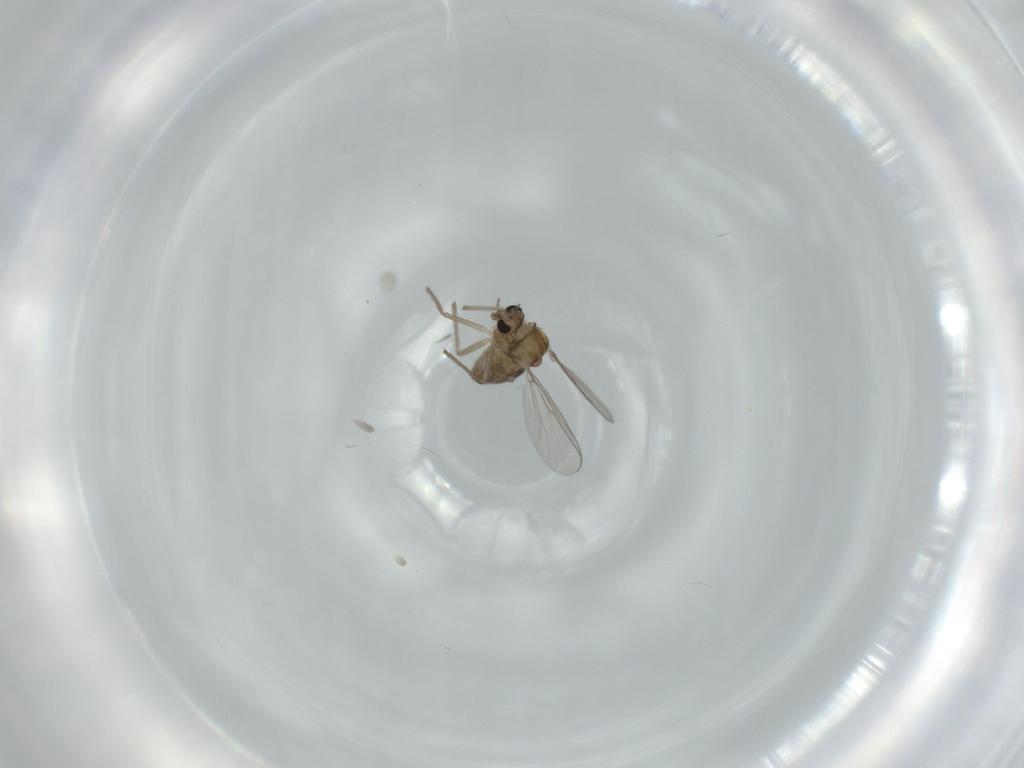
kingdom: Animalia
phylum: Arthropoda
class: Insecta
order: Diptera
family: Chironomidae
